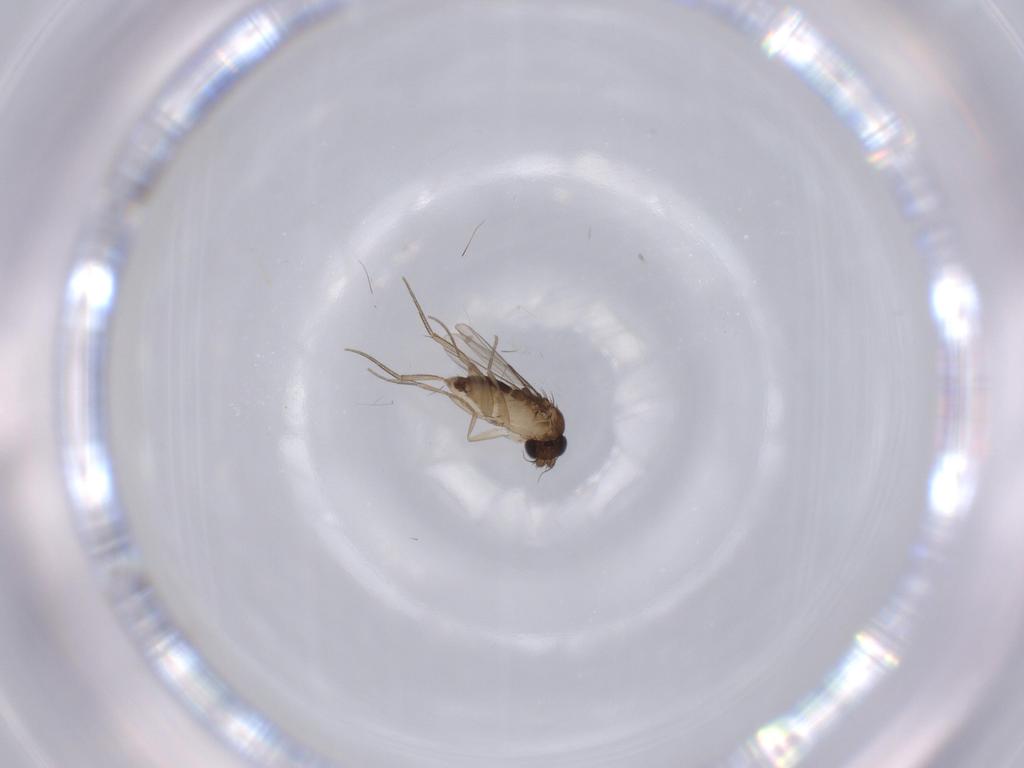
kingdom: Animalia
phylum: Arthropoda
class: Insecta
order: Diptera
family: Phoridae
